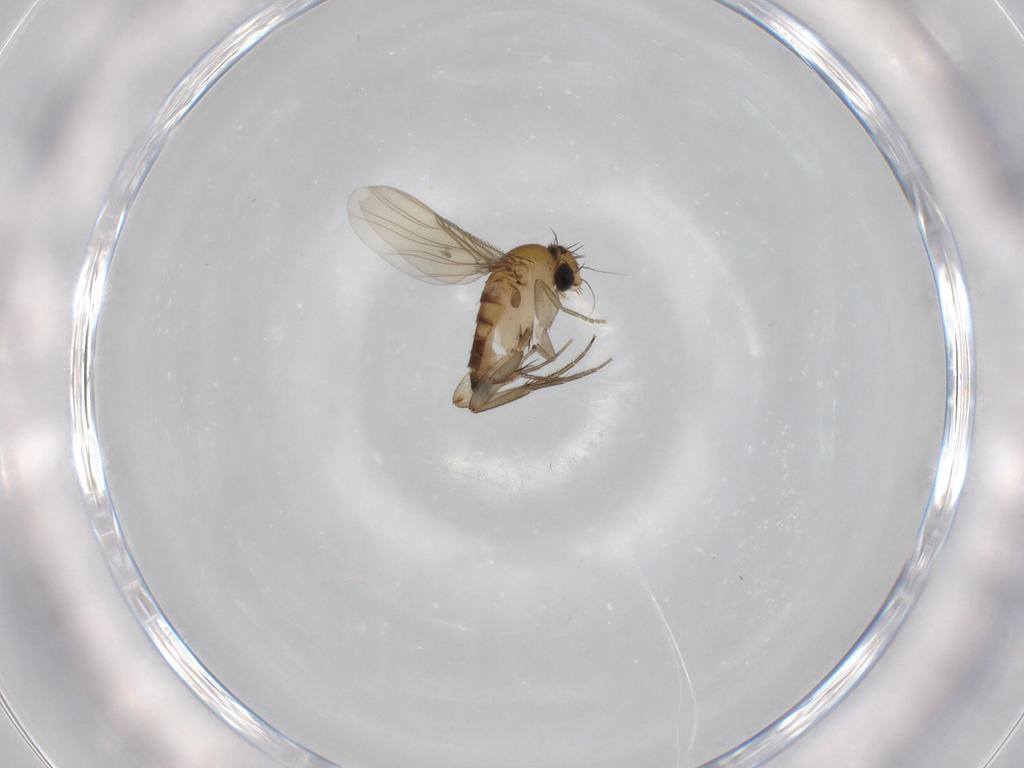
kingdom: Animalia
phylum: Arthropoda
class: Insecta
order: Diptera
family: Phoridae
